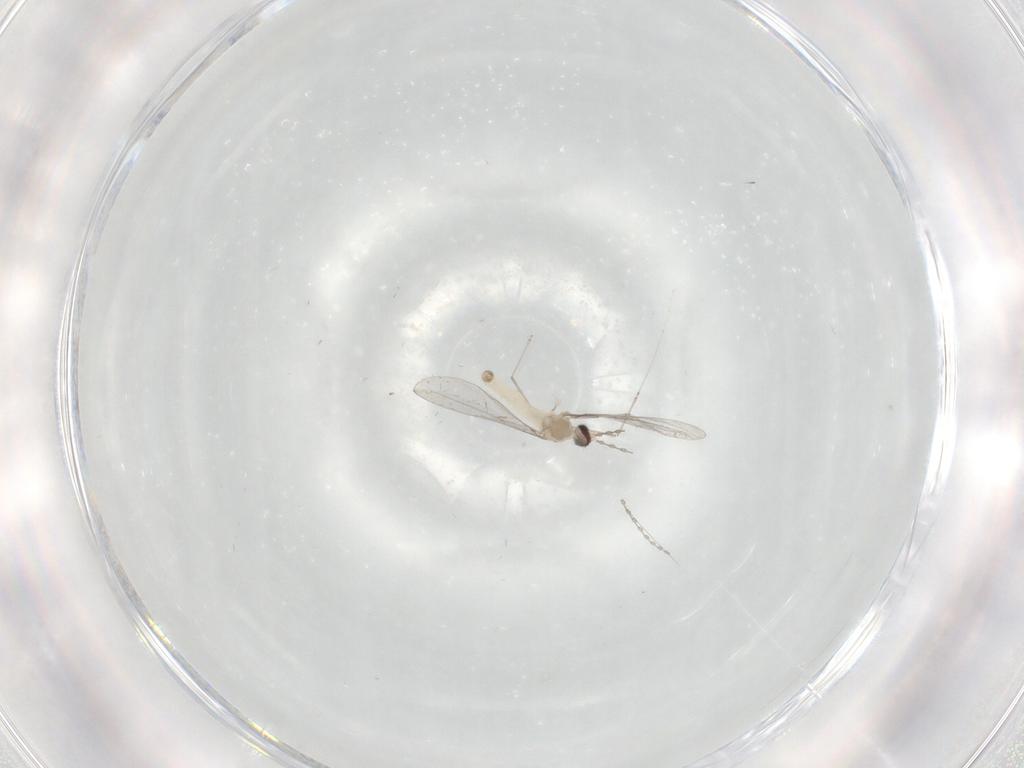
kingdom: Animalia
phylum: Arthropoda
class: Insecta
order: Diptera
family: Cecidomyiidae
